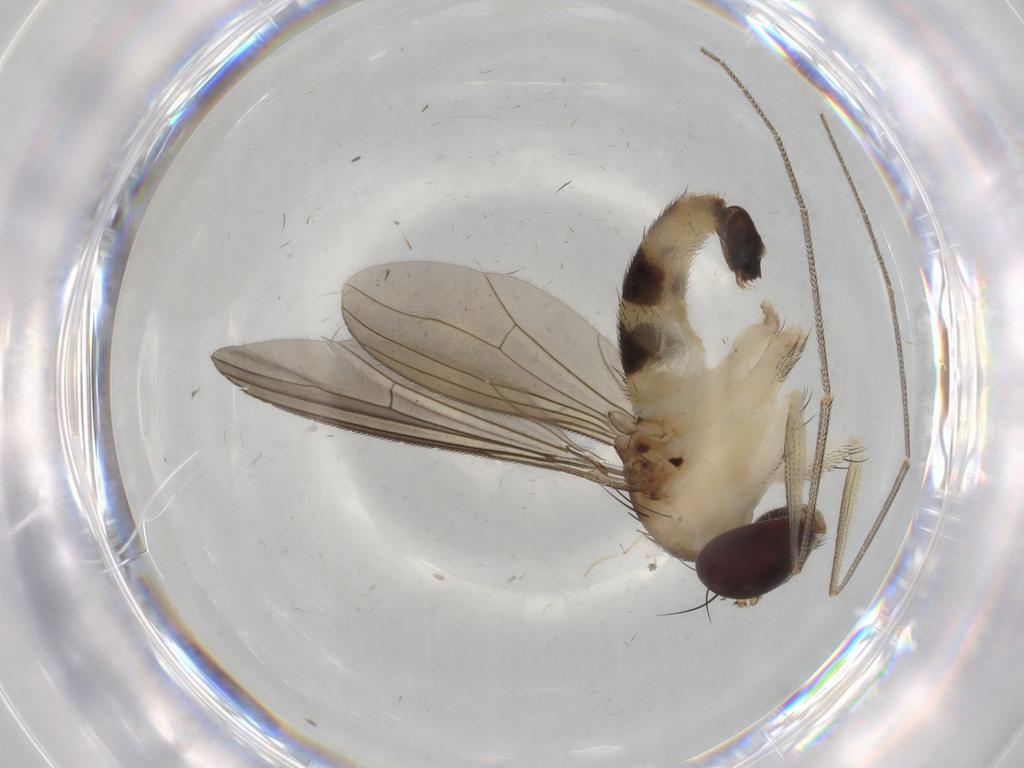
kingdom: Animalia
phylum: Arthropoda
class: Insecta
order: Diptera
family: Dolichopodidae
